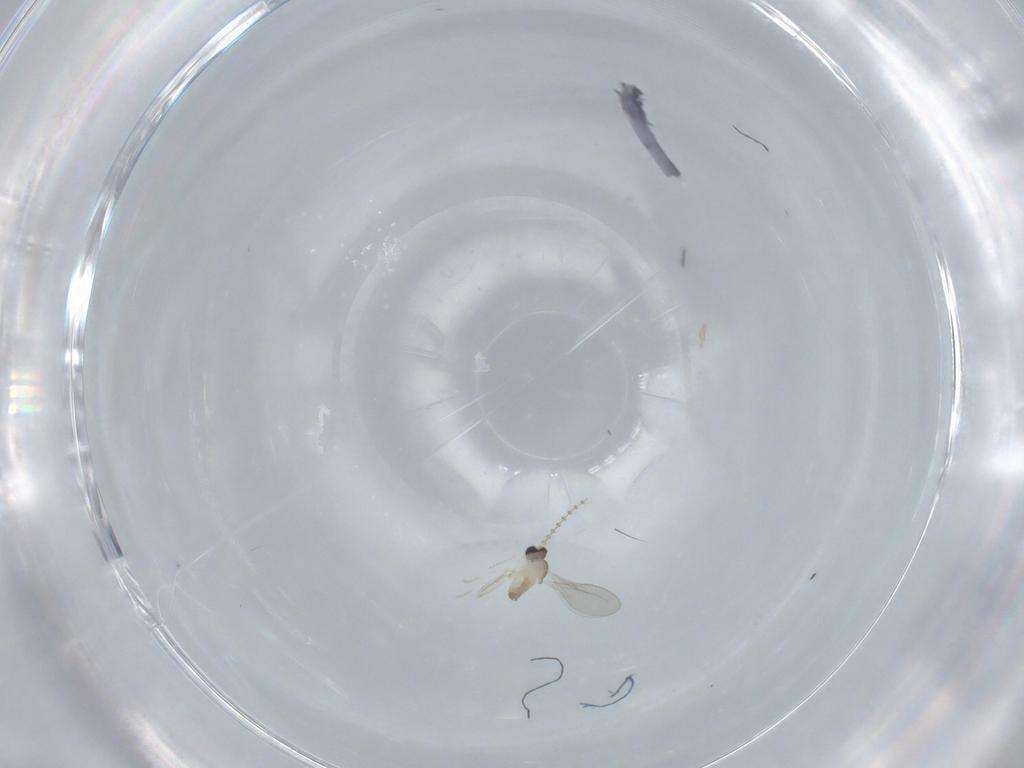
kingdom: Animalia
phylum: Arthropoda
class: Insecta
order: Diptera
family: Cecidomyiidae
